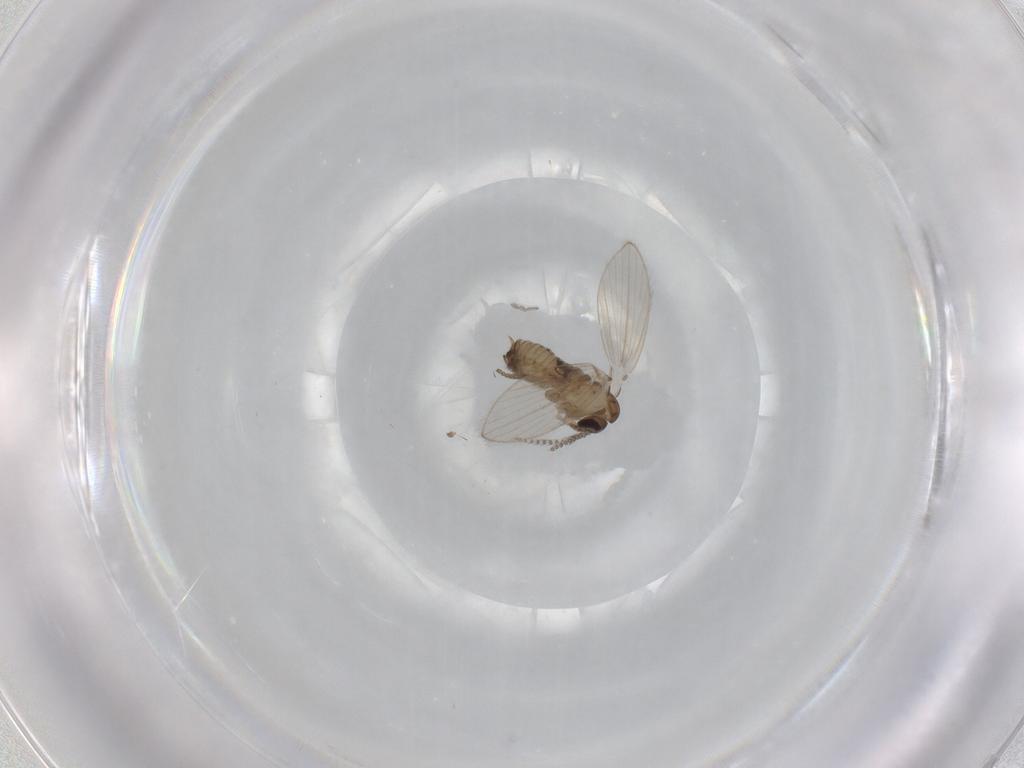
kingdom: Animalia
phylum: Arthropoda
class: Insecta
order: Diptera
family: Psychodidae
